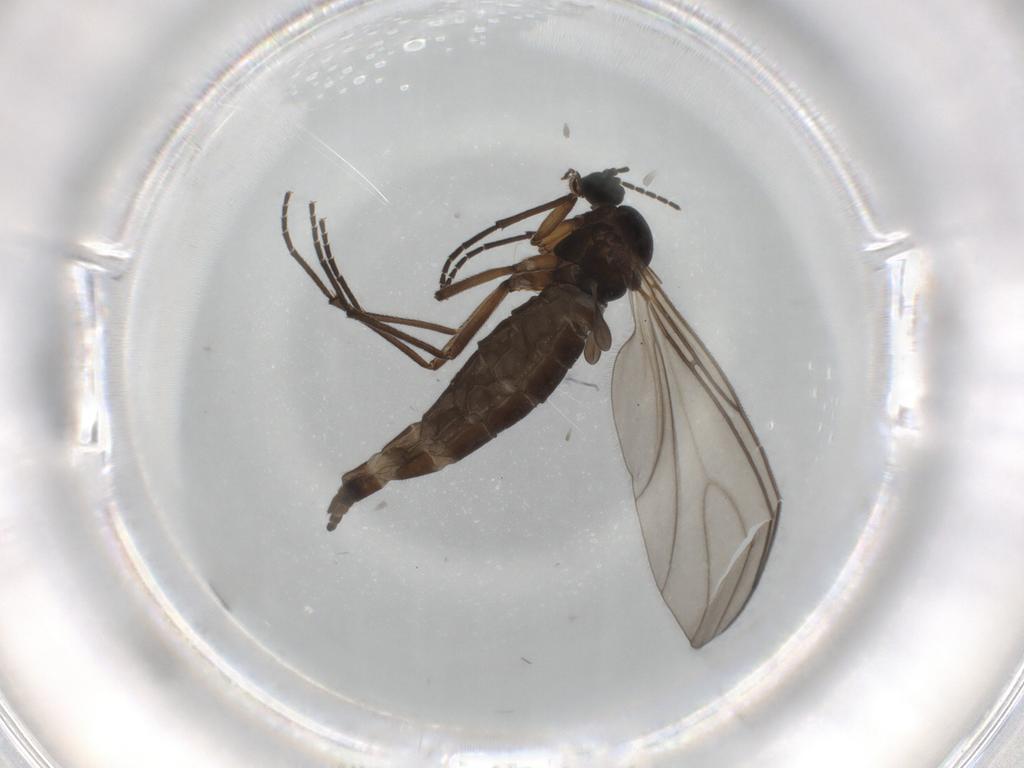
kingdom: Animalia
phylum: Arthropoda
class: Insecta
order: Diptera
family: Sciaridae
